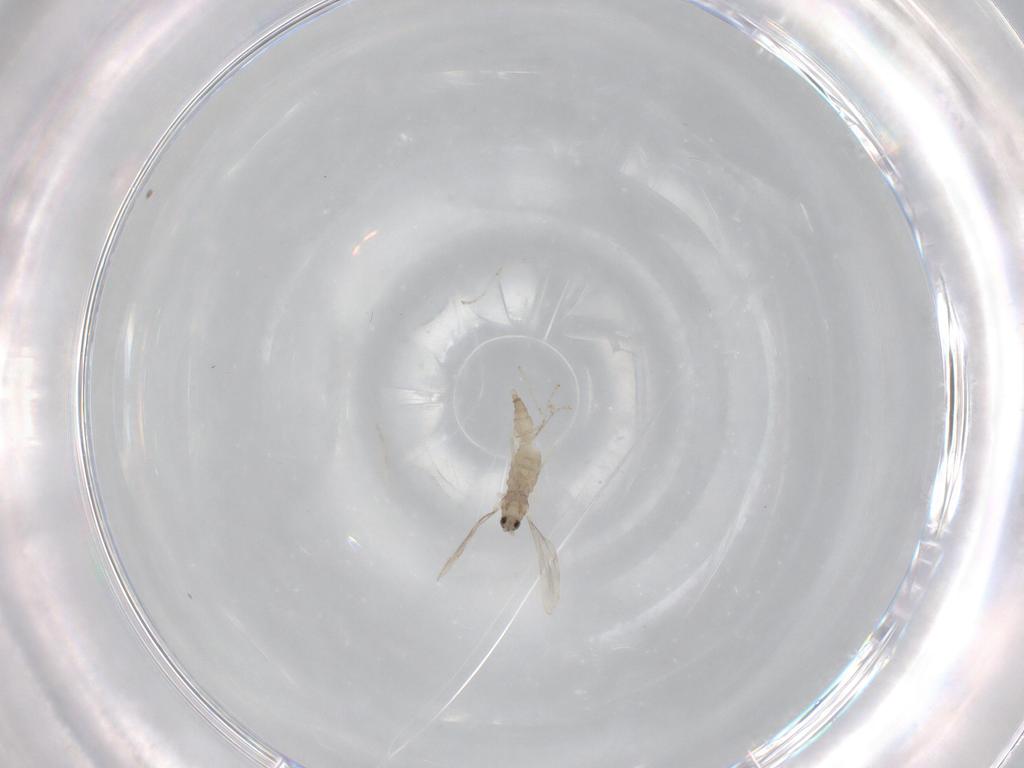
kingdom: Animalia
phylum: Arthropoda
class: Insecta
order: Diptera
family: Cecidomyiidae
